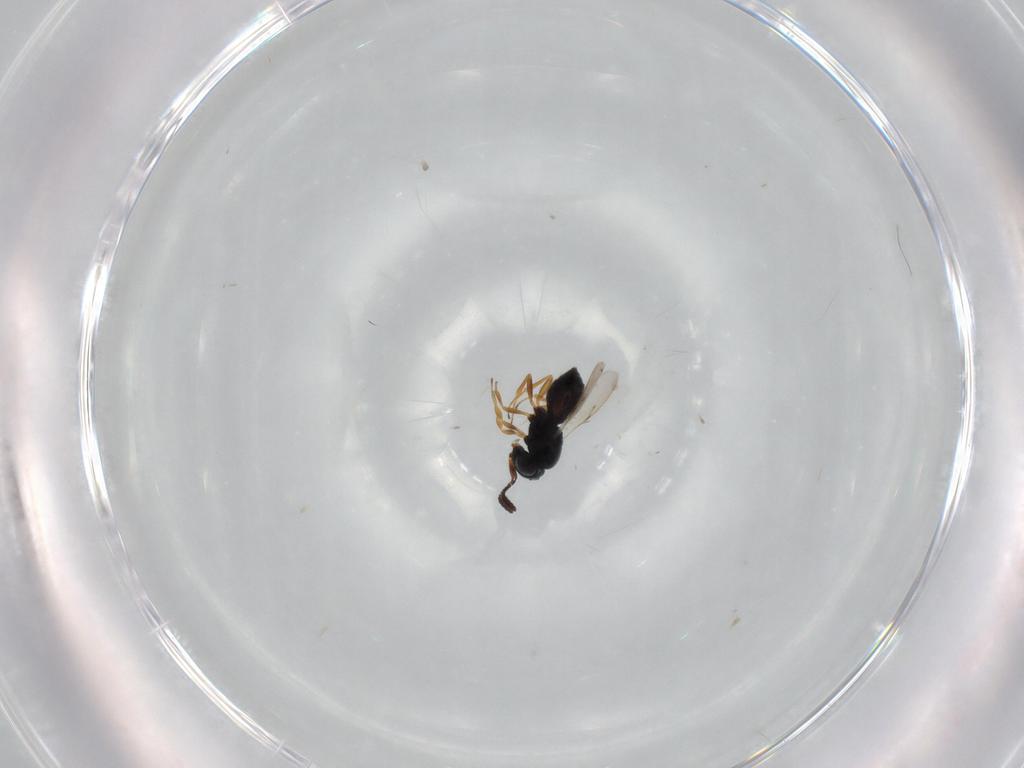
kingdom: Animalia
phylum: Arthropoda
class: Insecta
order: Hymenoptera
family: Scelionidae
